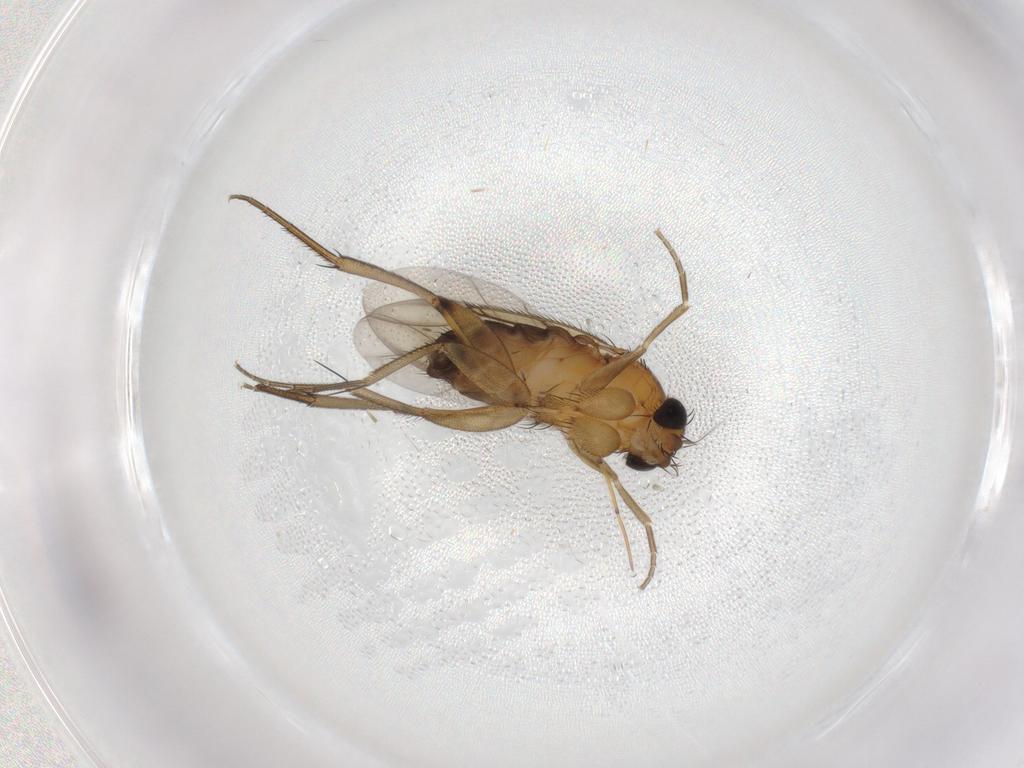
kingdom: Animalia
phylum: Arthropoda
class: Insecta
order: Diptera
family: Phoridae
